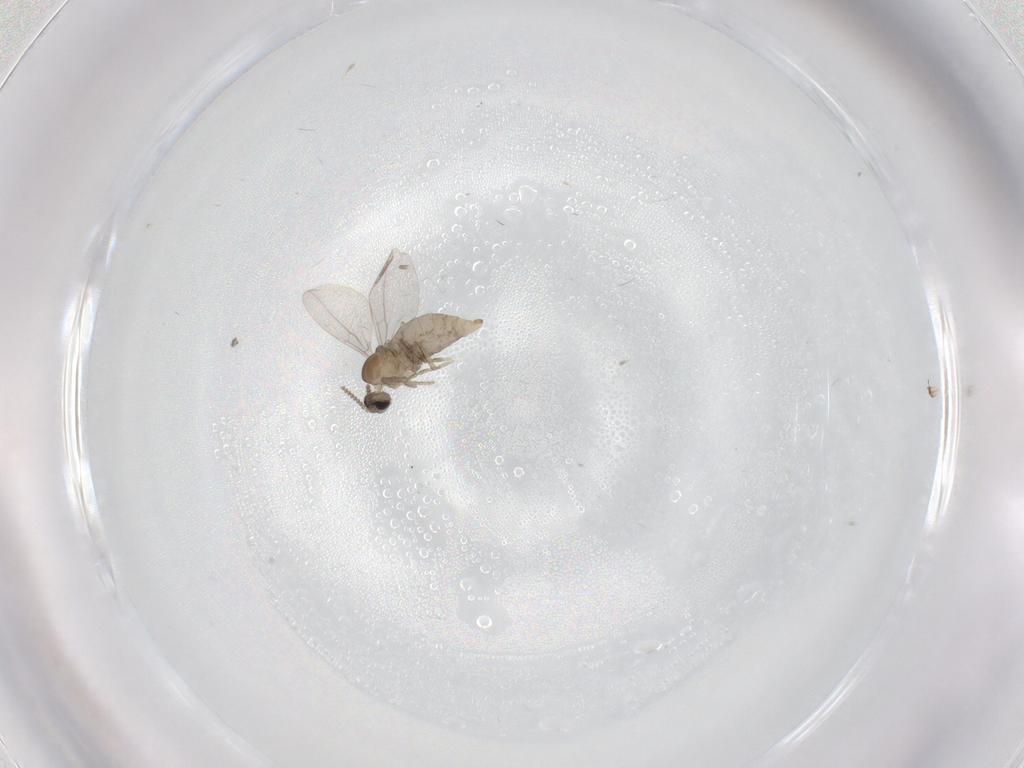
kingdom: Animalia
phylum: Arthropoda
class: Insecta
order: Diptera
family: Cecidomyiidae
